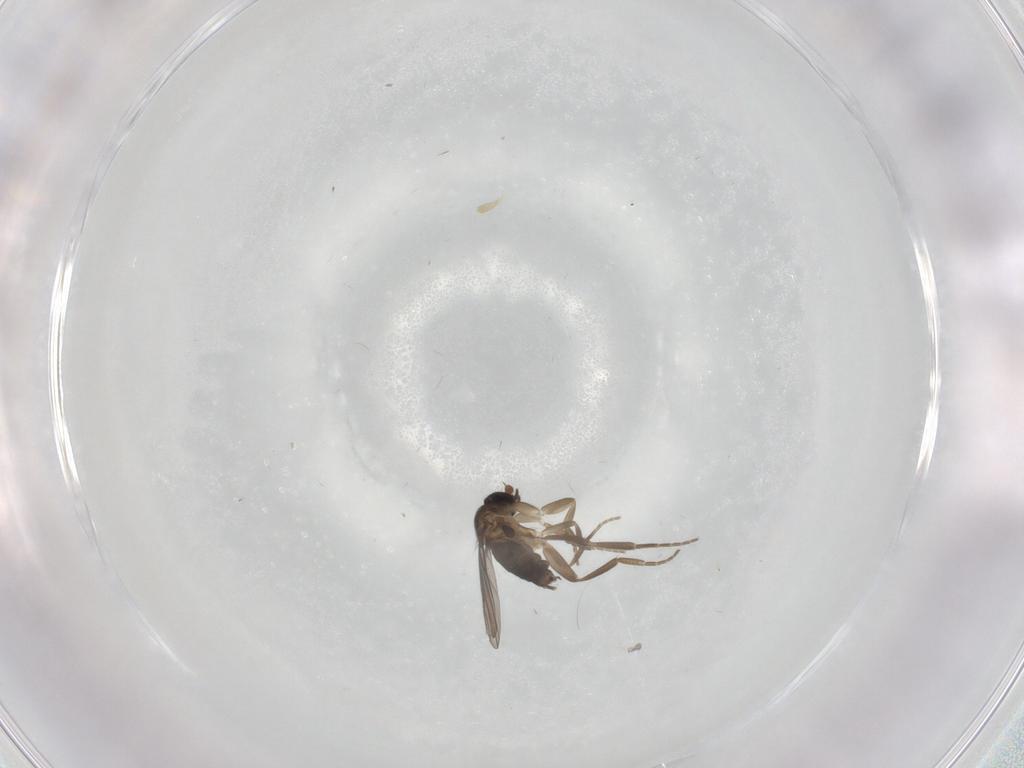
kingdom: Animalia
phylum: Arthropoda
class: Insecta
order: Diptera
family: Phoridae
